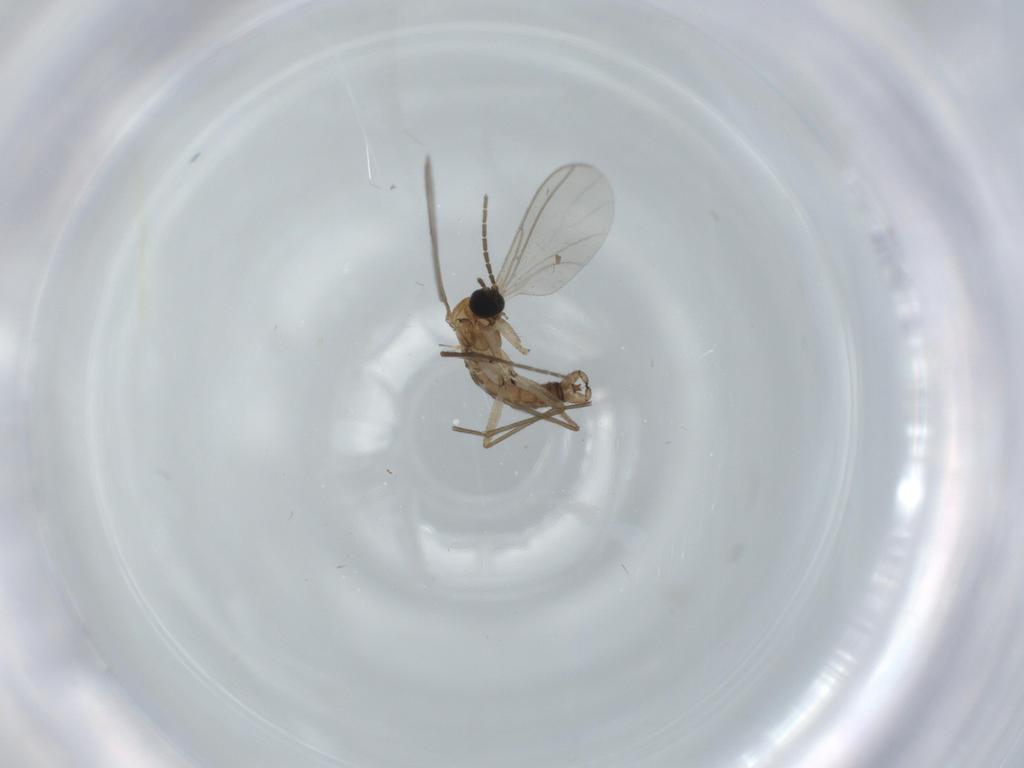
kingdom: Animalia
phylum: Arthropoda
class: Insecta
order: Diptera
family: Sciaridae
